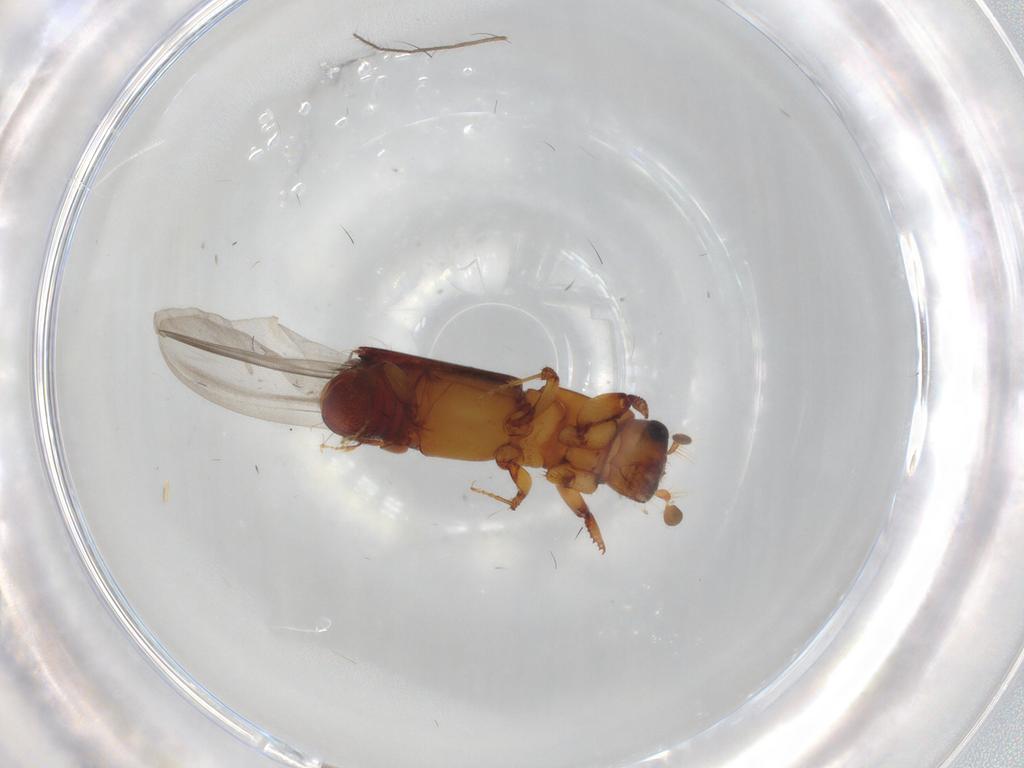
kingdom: Animalia
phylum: Arthropoda
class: Insecta
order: Coleoptera
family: Curculionidae
